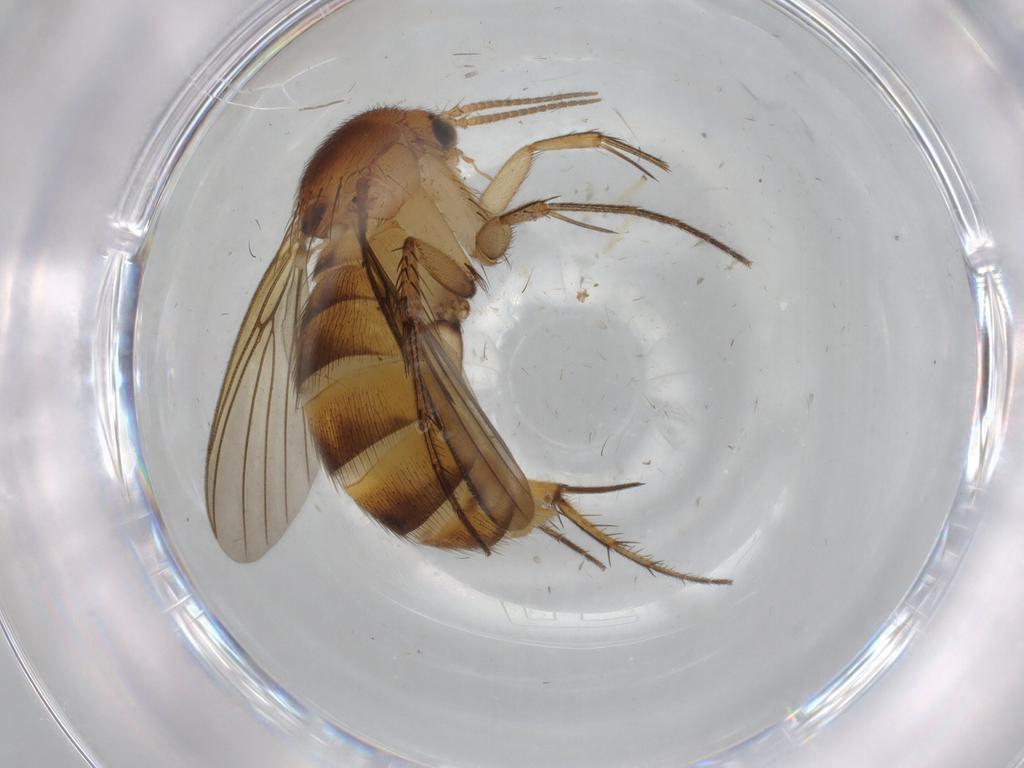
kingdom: Animalia
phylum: Arthropoda
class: Insecta
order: Diptera
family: Mycetophilidae
